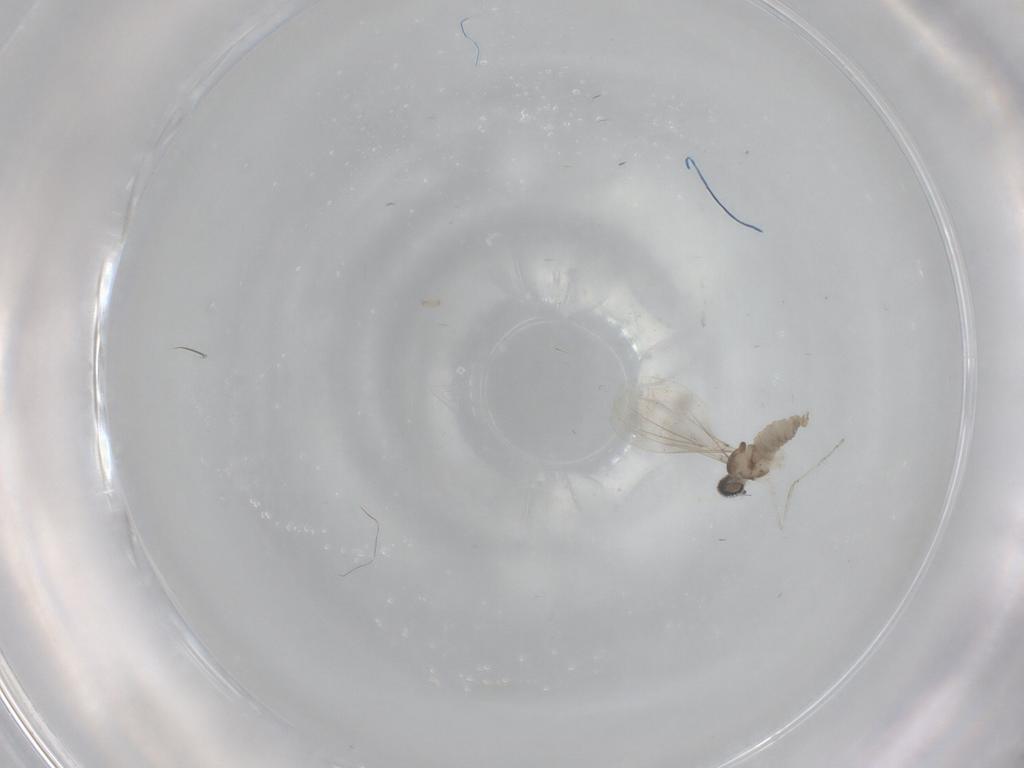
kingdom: Animalia
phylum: Arthropoda
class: Insecta
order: Diptera
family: Cecidomyiidae
